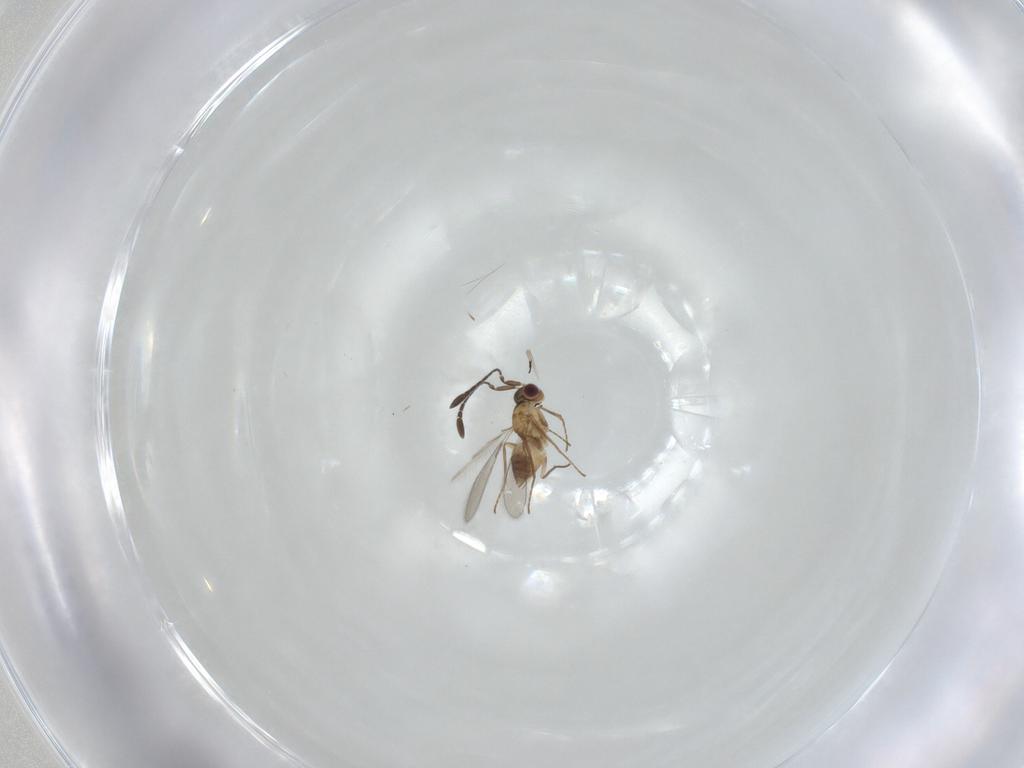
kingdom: Animalia
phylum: Arthropoda
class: Insecta
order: Hymenoptera
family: Mymaridae
